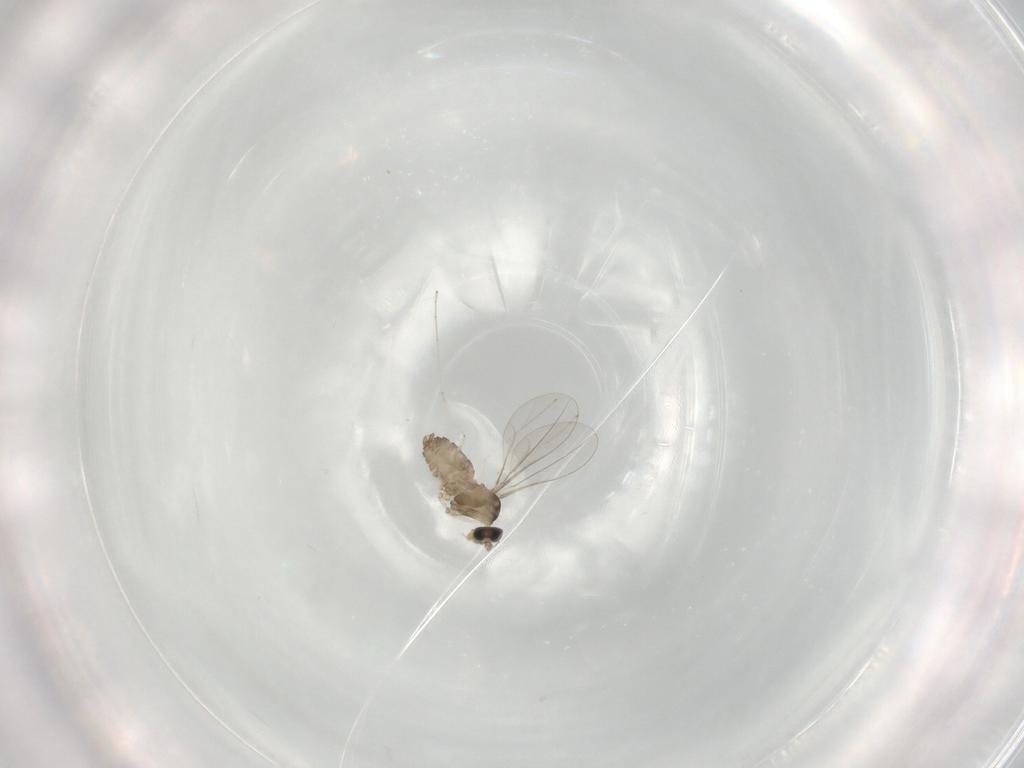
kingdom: Animalia
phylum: Arthropoda
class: Insecta
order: Diptera
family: Cecidomyiidae
